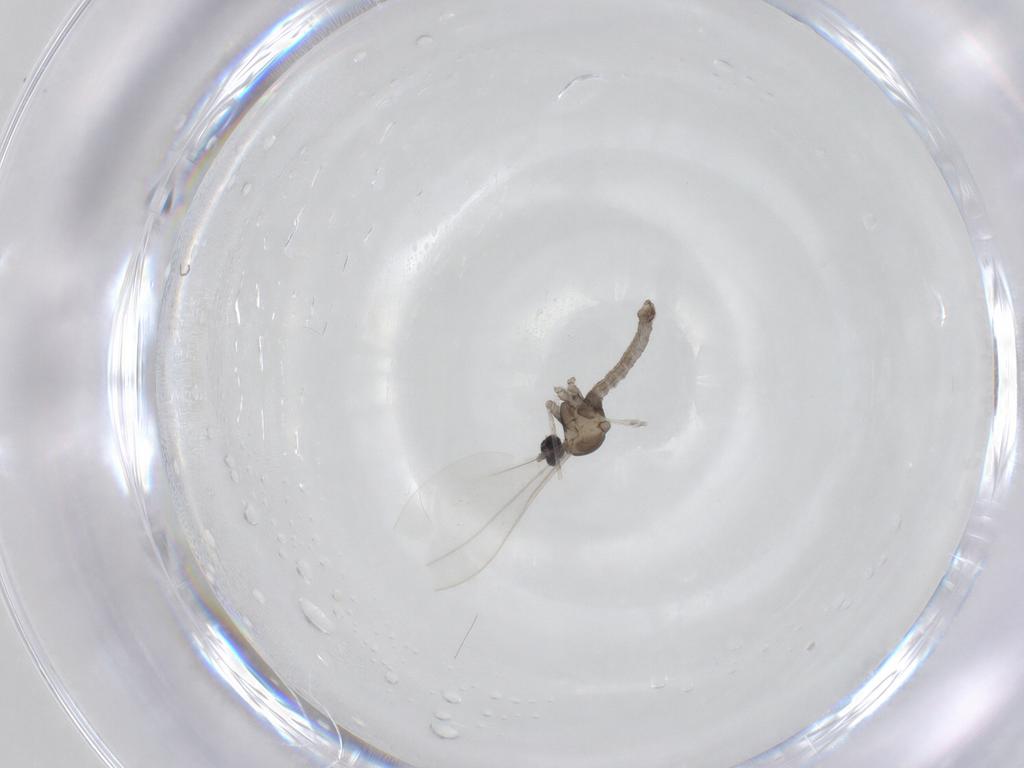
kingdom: Animalia
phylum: Arthropoda
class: Insecta
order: Diptera
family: Cecidomyiidae
